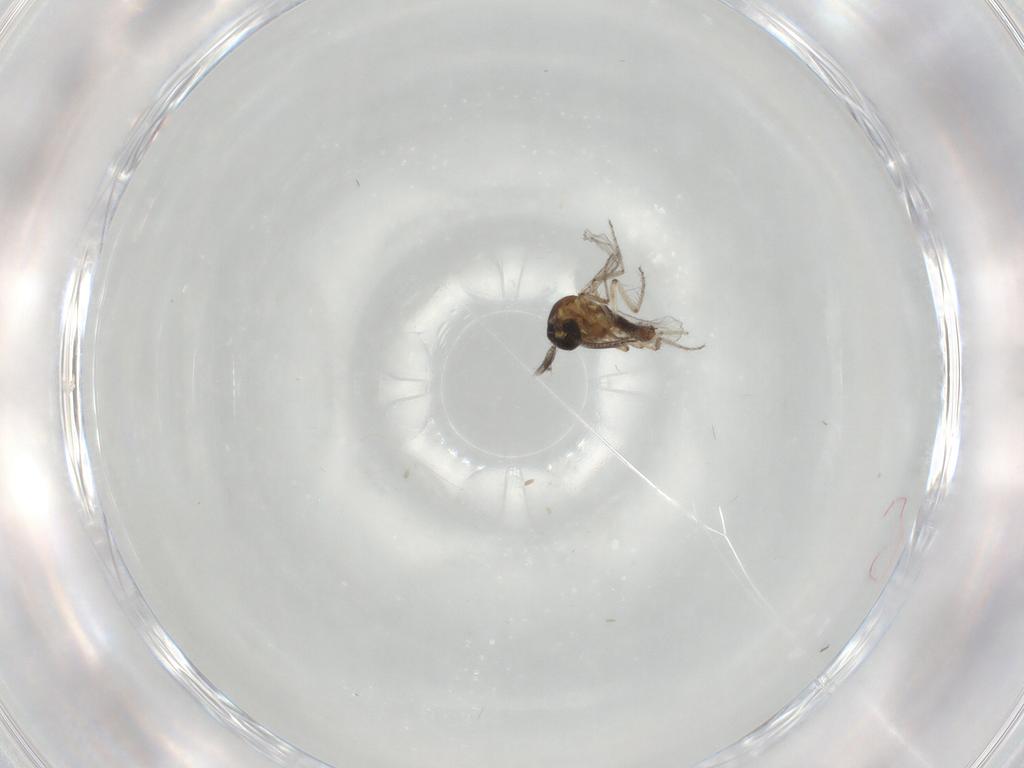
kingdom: Animalia
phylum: Arthropoda
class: Insecta
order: Diptera
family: Ceratopogonidae
